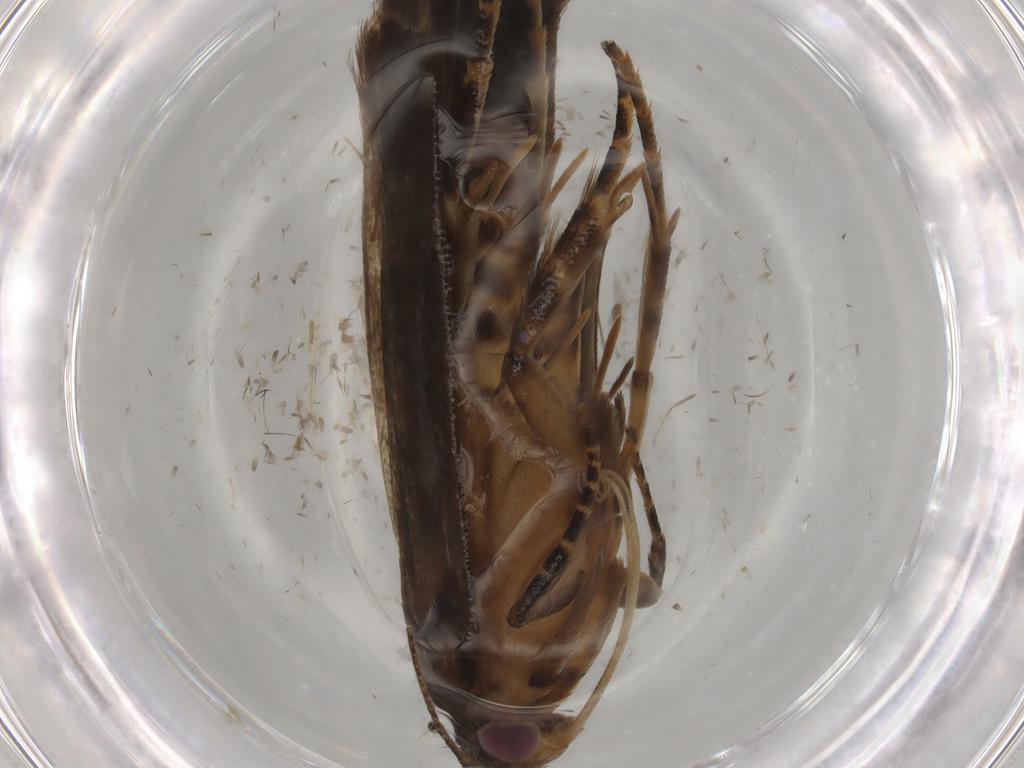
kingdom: Animalia
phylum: Arthropoda
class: Insecta
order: Lepidoptera
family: Gelechiidae
